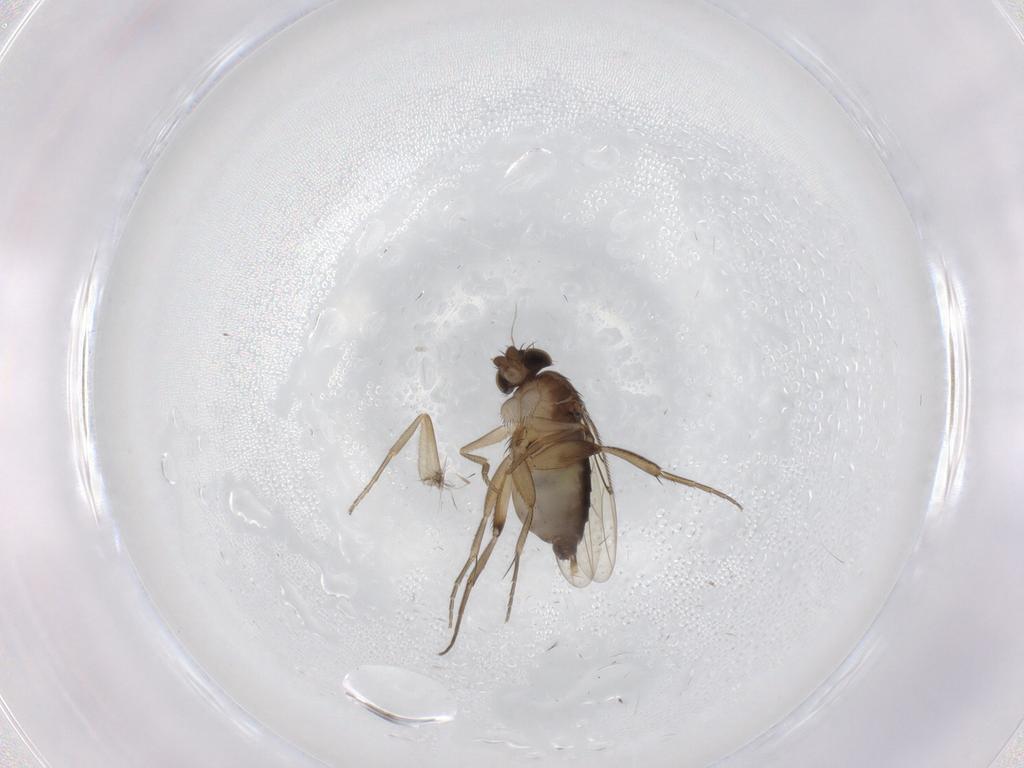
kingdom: Animalia
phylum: Arthropoda
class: Insecta
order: Diptera
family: Phoridae
